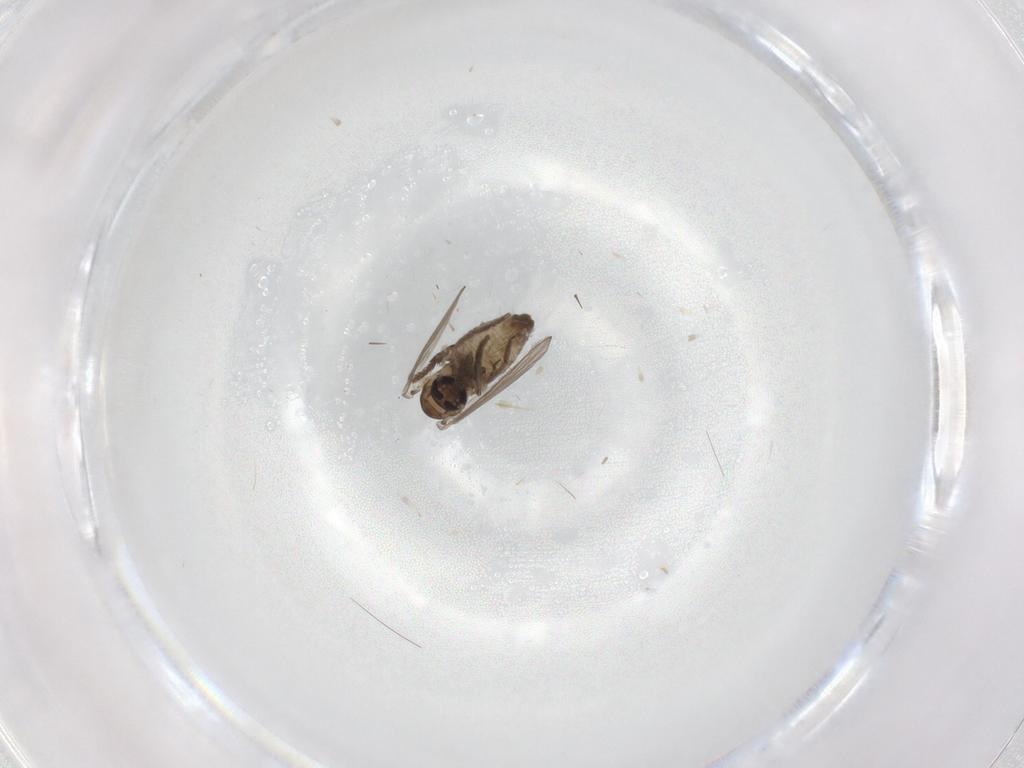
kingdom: Animalia
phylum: Arthropoda
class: Insecta
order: Diptera
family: Psychodidae
